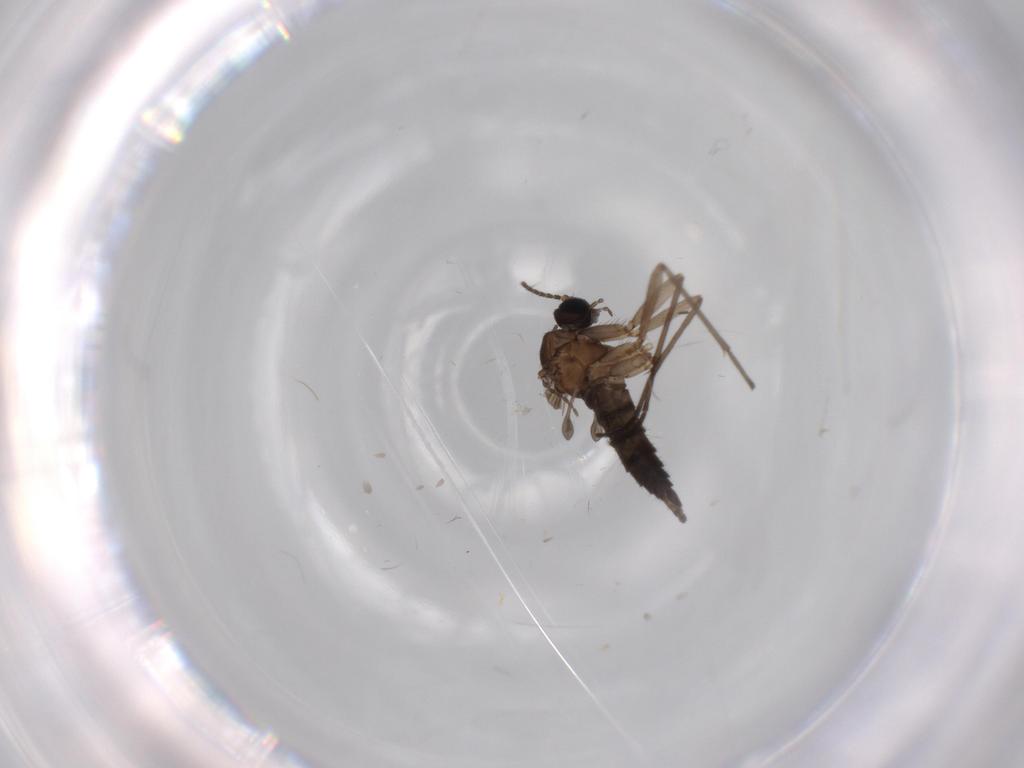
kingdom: Animalia
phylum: Arthropoda
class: Insecta
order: Diptera
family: Sciaridae
